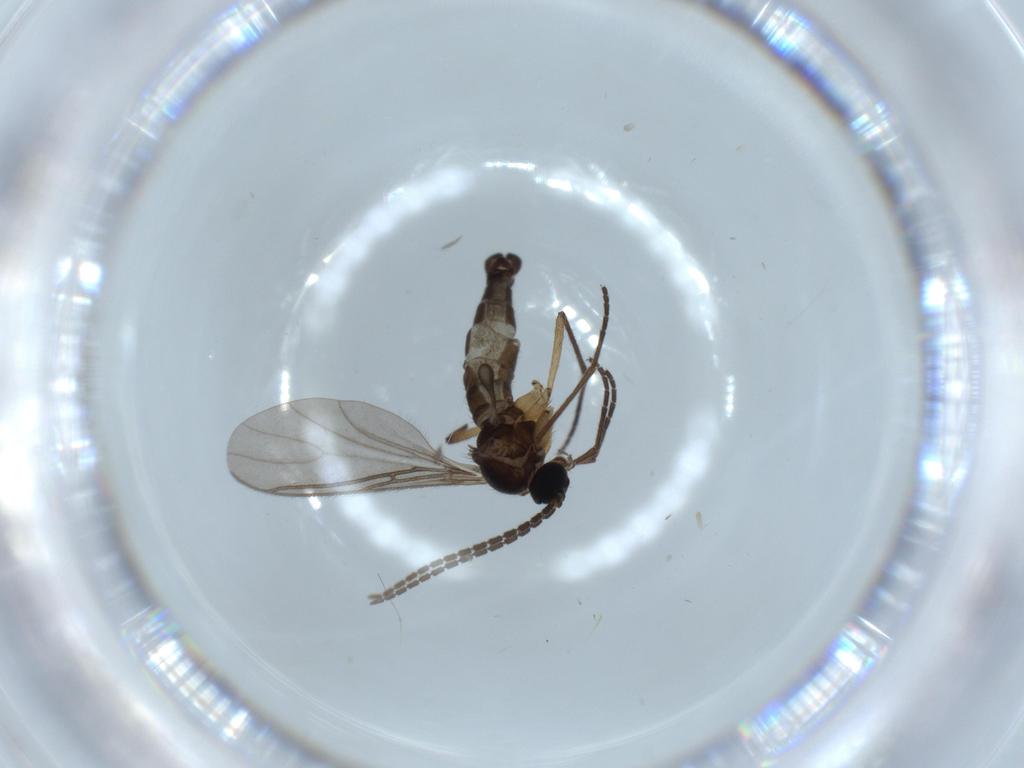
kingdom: Animalia
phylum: Arthropoda
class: Insecta
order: Diptera
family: Sciaridae
